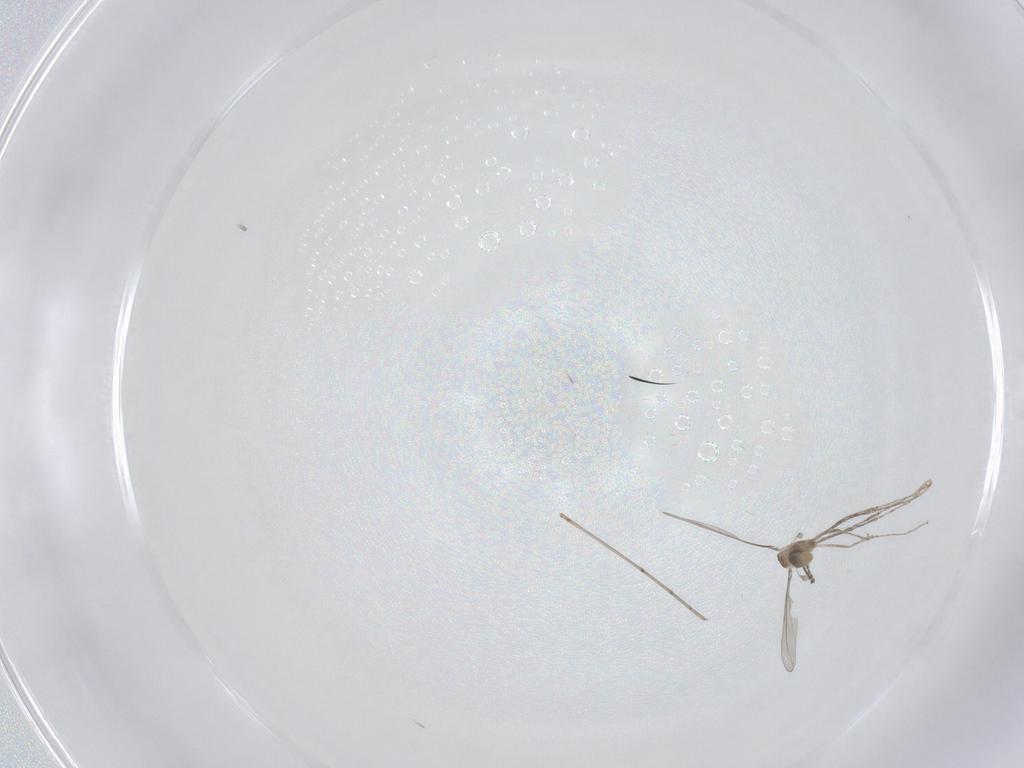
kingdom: Animalia
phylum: Arthropoda
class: Insecta
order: Diptera
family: Cecidomyiidae
